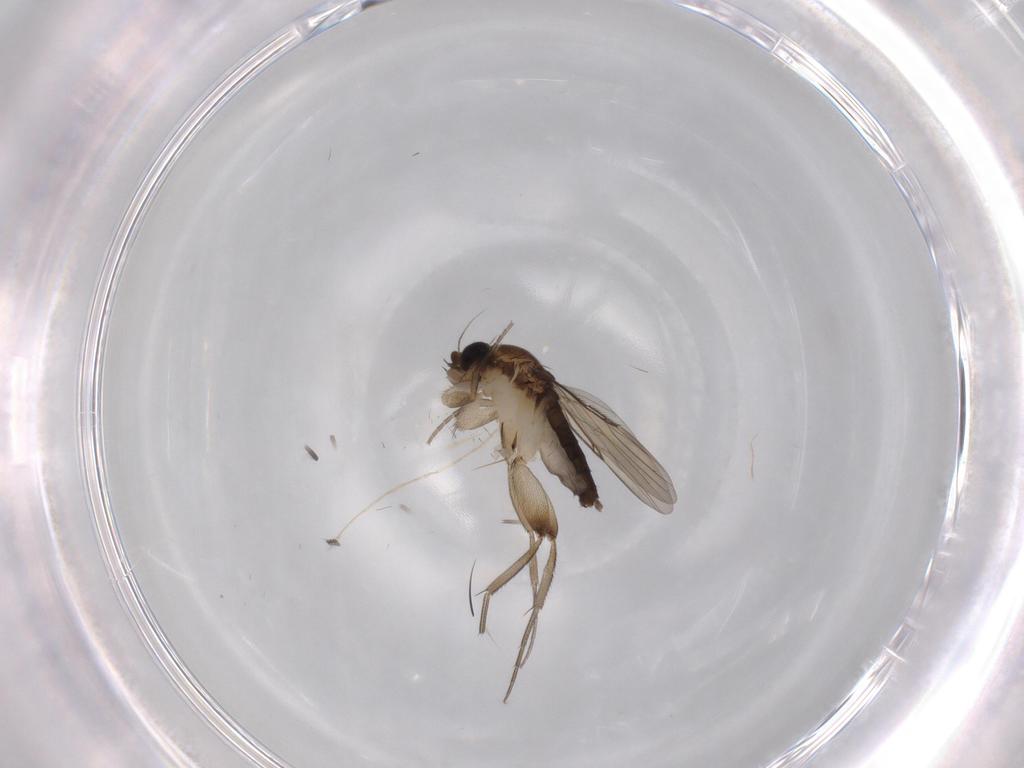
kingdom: Animalia
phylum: Arthropoda
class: Insecta
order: Diptera
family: Phoridae
